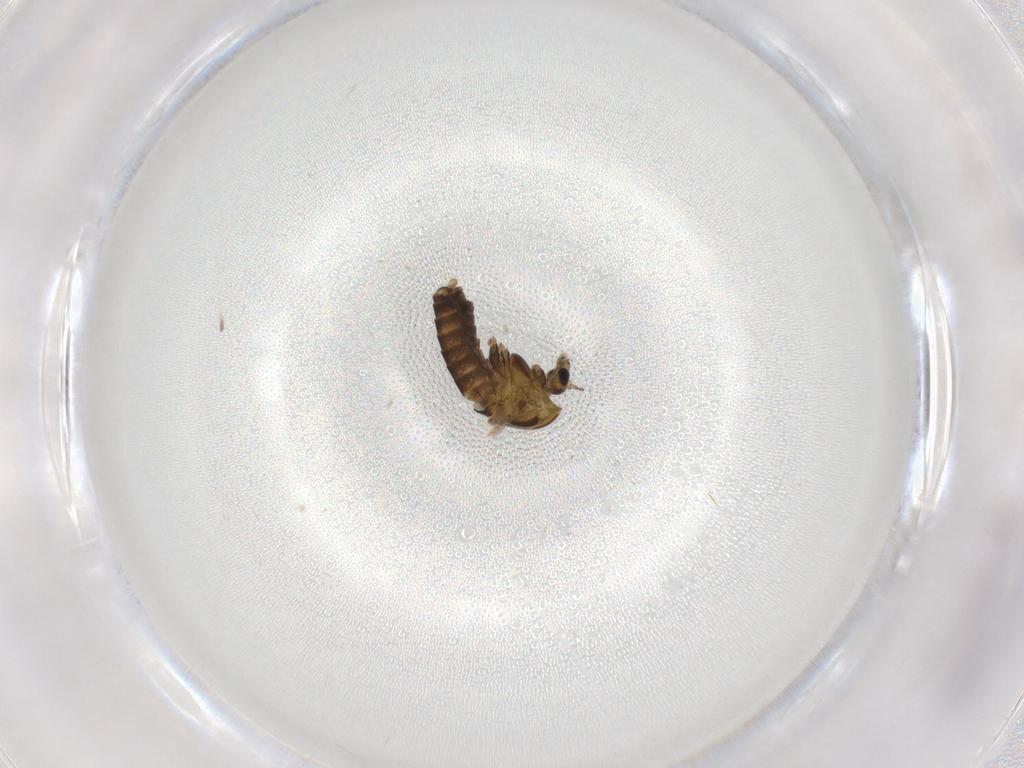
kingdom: Animalia
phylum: Arthropoda
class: Insecta
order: Diptera
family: Chironomidae
